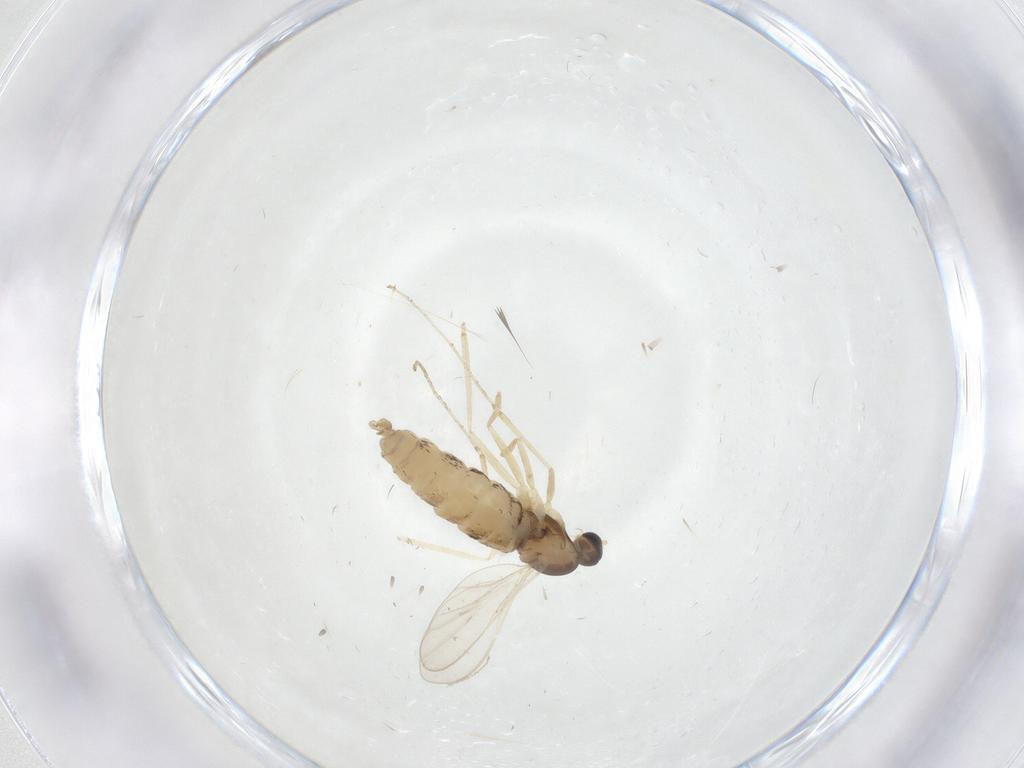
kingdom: Animalia
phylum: Arthropoda
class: Insecta
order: Diptera
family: Cecidomyiidae
